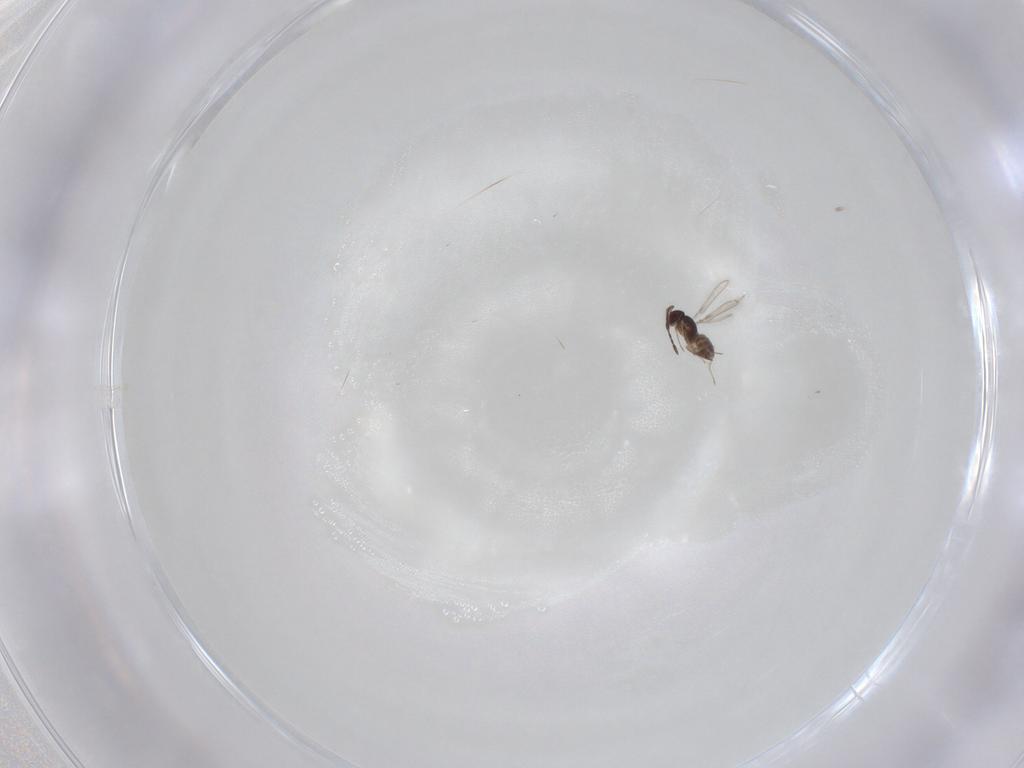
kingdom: Animalia
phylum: Arthropoda
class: Insecta
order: Hymenoptera
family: Mymaridae
